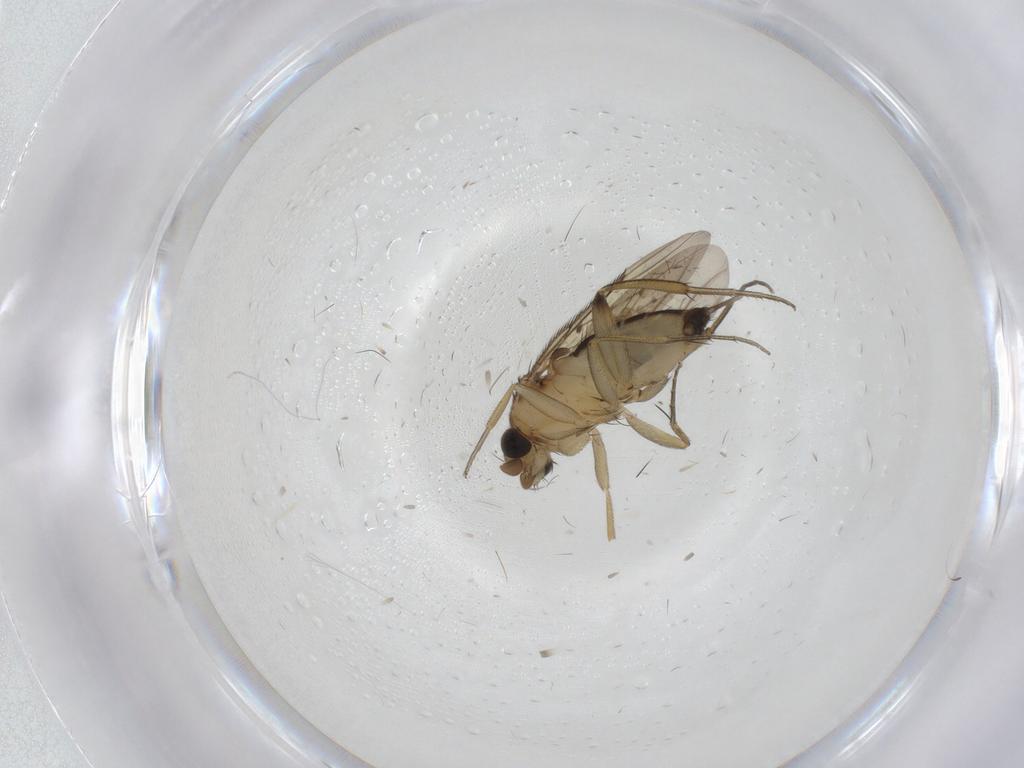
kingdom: Animalia
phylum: Arthropoda
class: Insecta
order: Diptera
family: Phoridae
